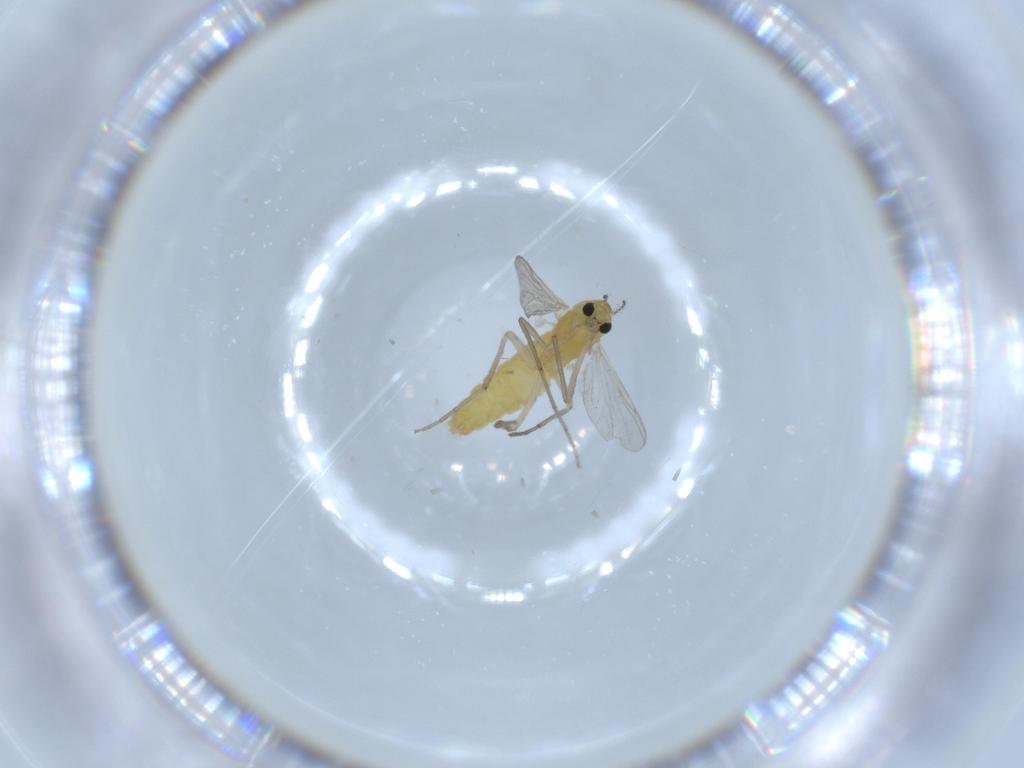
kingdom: Animalia
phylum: Arthropoda
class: Insecta
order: Diptera
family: Chironomidae
